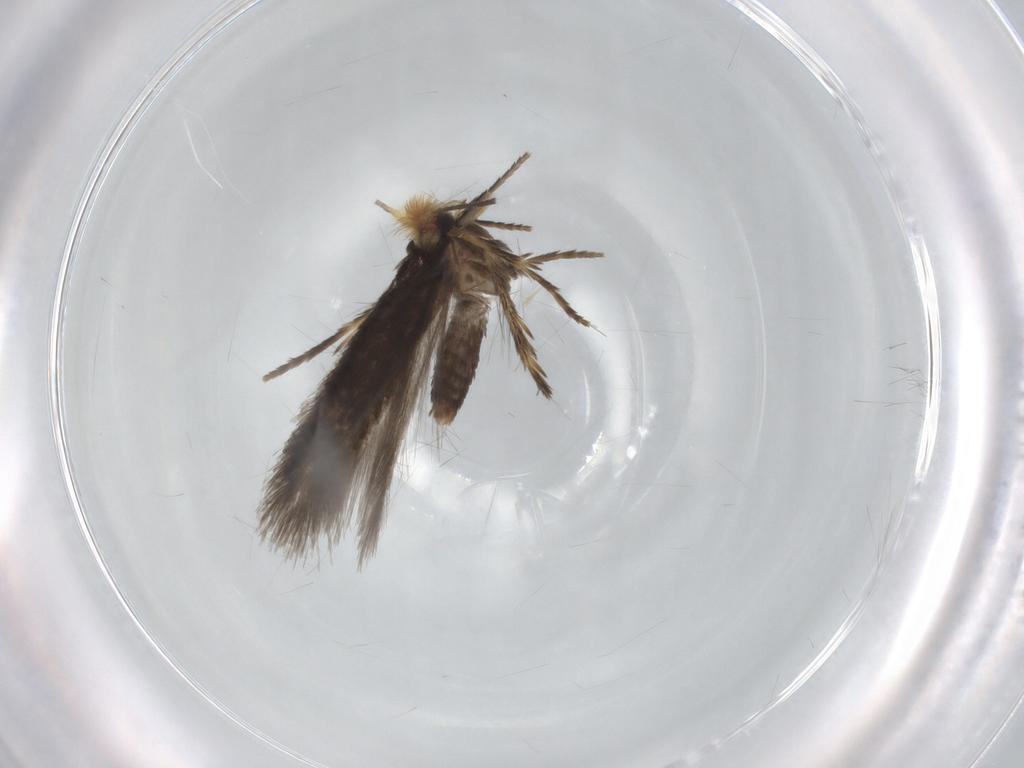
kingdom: Animalia
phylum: Arthropoda
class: Insecta
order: Lepidoptera
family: Nepticulidae
